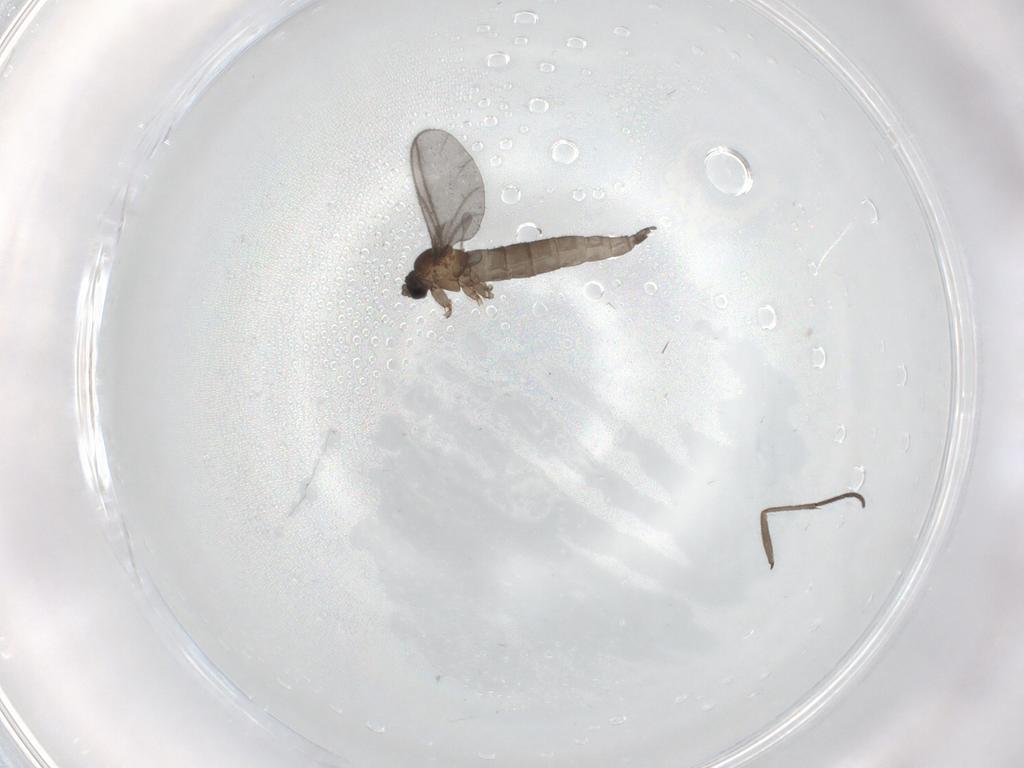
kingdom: Animalia
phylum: Arthropoda
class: Insecta
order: Diptera
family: Sciaridae
